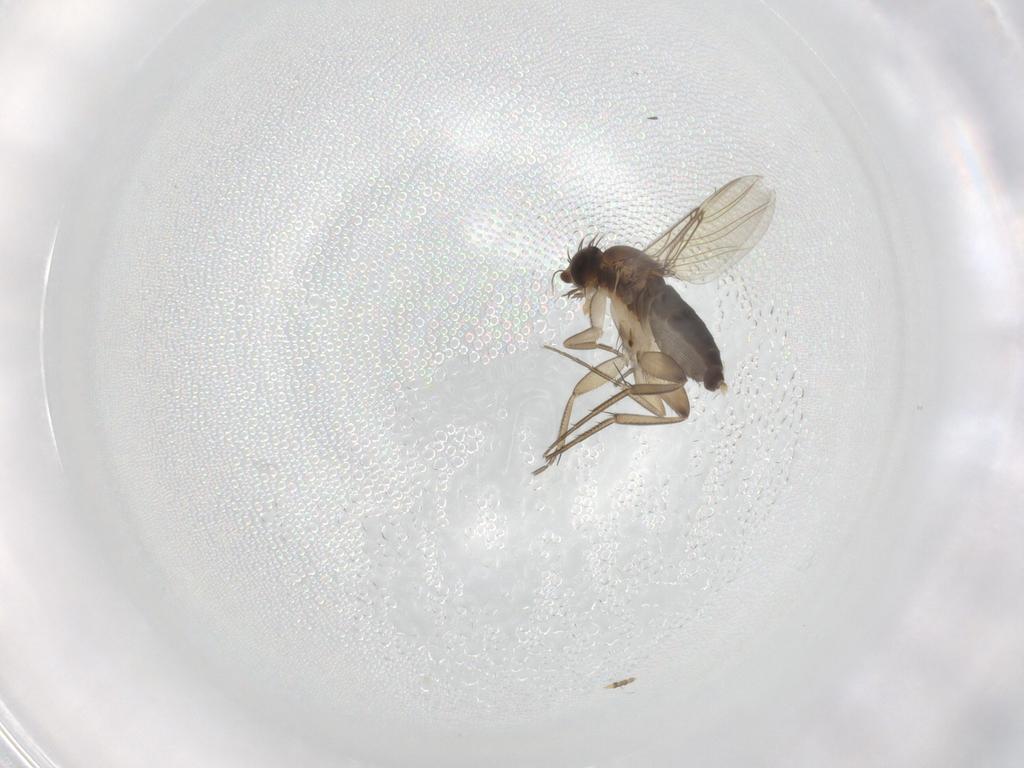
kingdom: Animalia
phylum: Arthropoda
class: Insecta
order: Diptera
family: Phoridae
